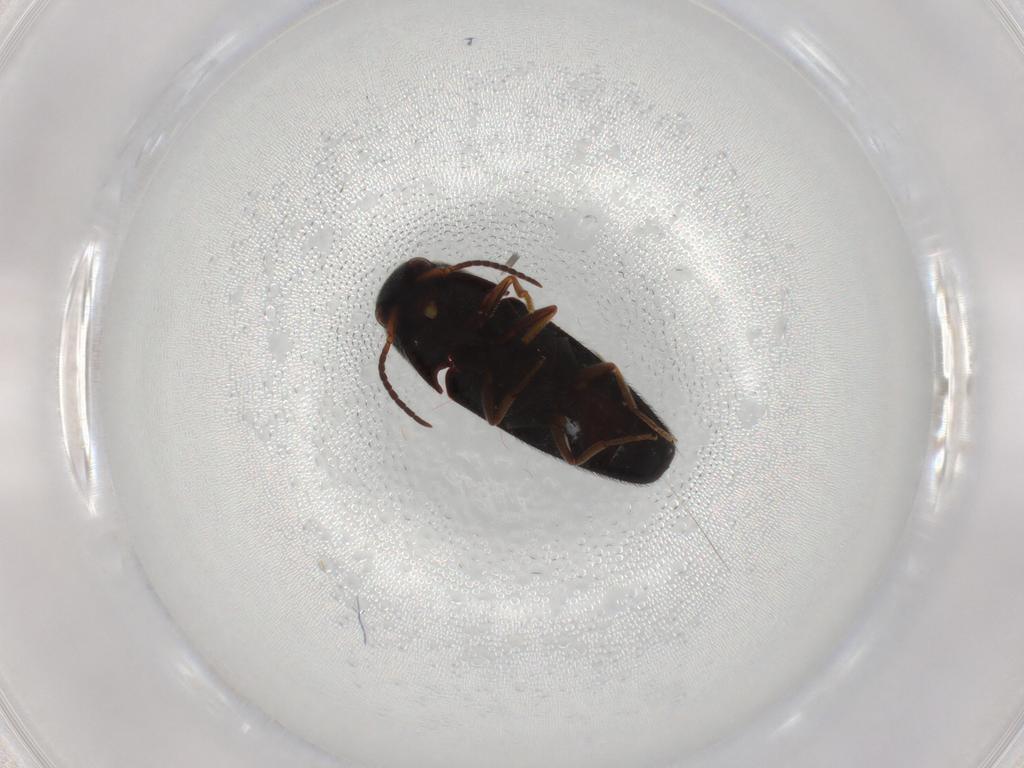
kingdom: Animalia
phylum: Arthropoda
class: Insecta
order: Coleoptera
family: Eucnemidae
